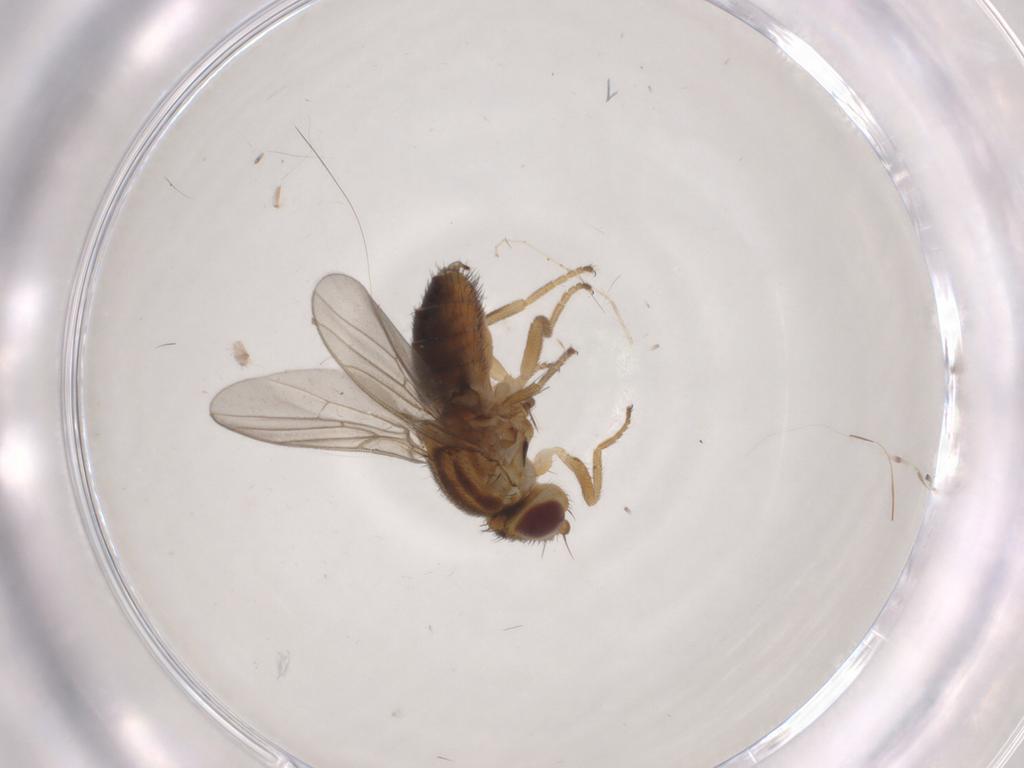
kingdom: Animalia
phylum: Arthropoda
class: Insecta
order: Diptera
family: Chloropidae
